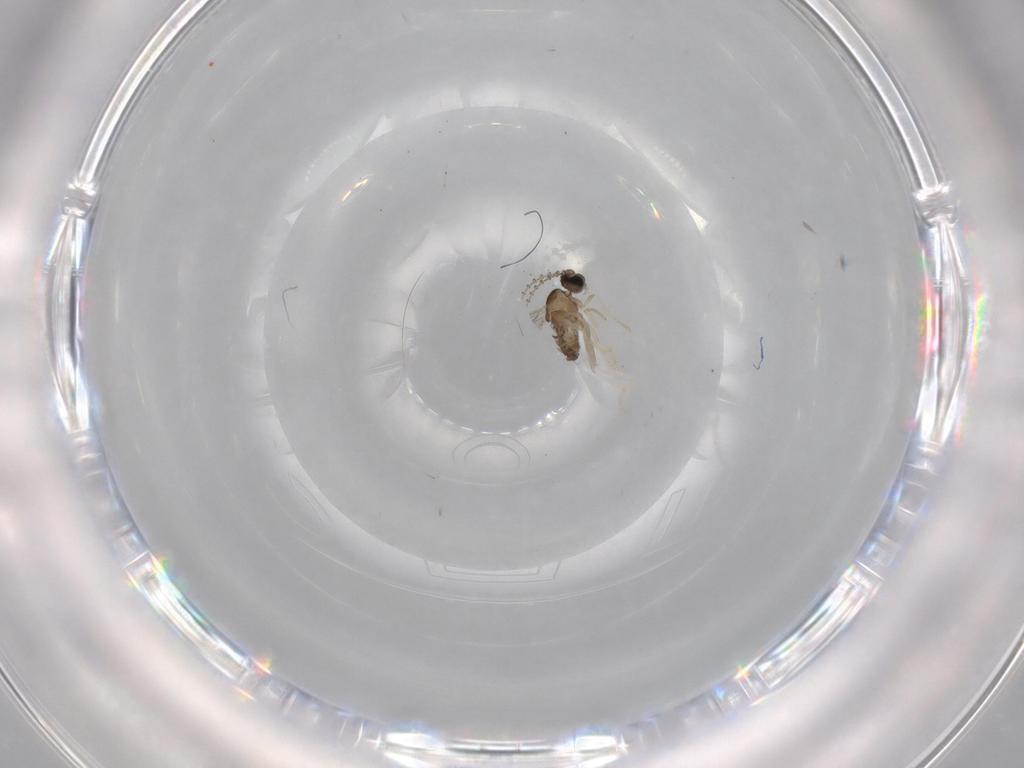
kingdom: Animalia
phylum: Arthropoda
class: Insecta
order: Diptera
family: Cecidomyiidae
